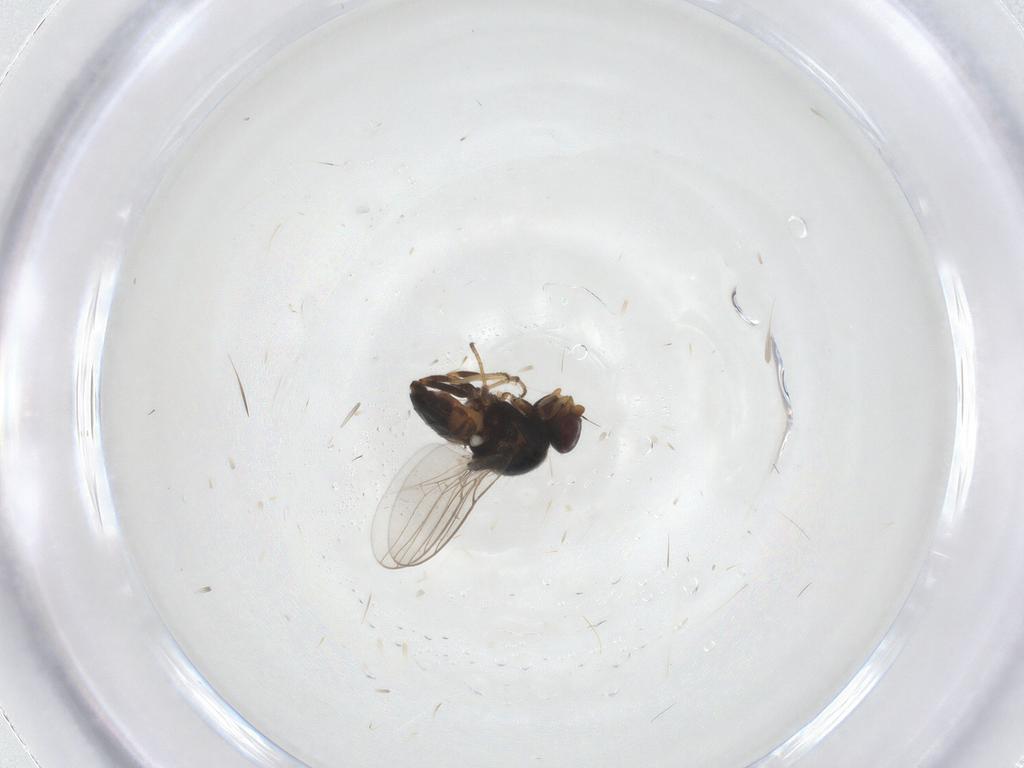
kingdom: Animalia
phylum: Arthropoda
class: Insecta
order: Diptera
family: Chloropidae
